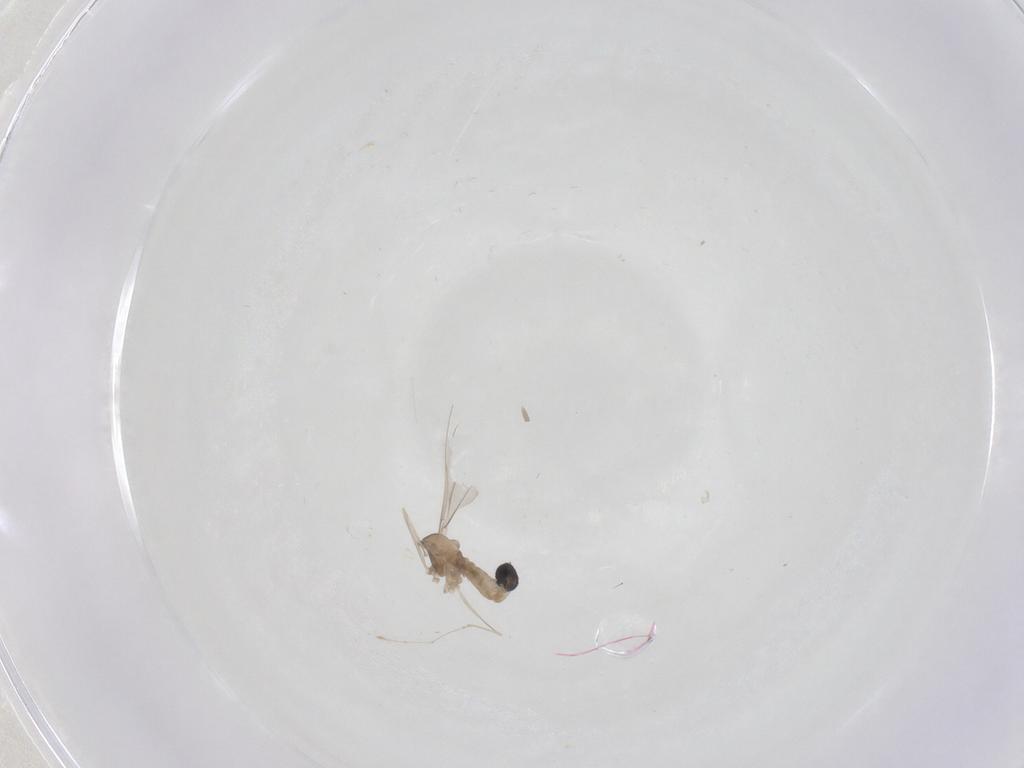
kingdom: Animalia
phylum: Arthropoda
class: Insecta
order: Diptera
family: Cecidomyiidae
